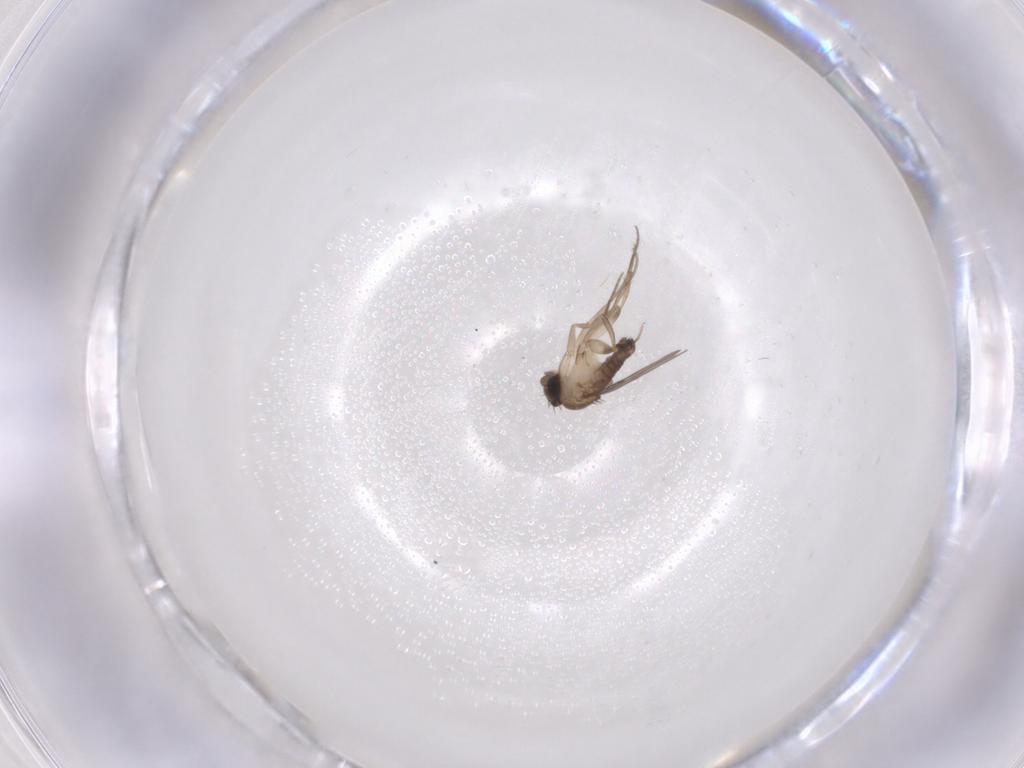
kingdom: Animalia
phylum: Arthropoda
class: Insecta
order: Diptera
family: Phoridae
